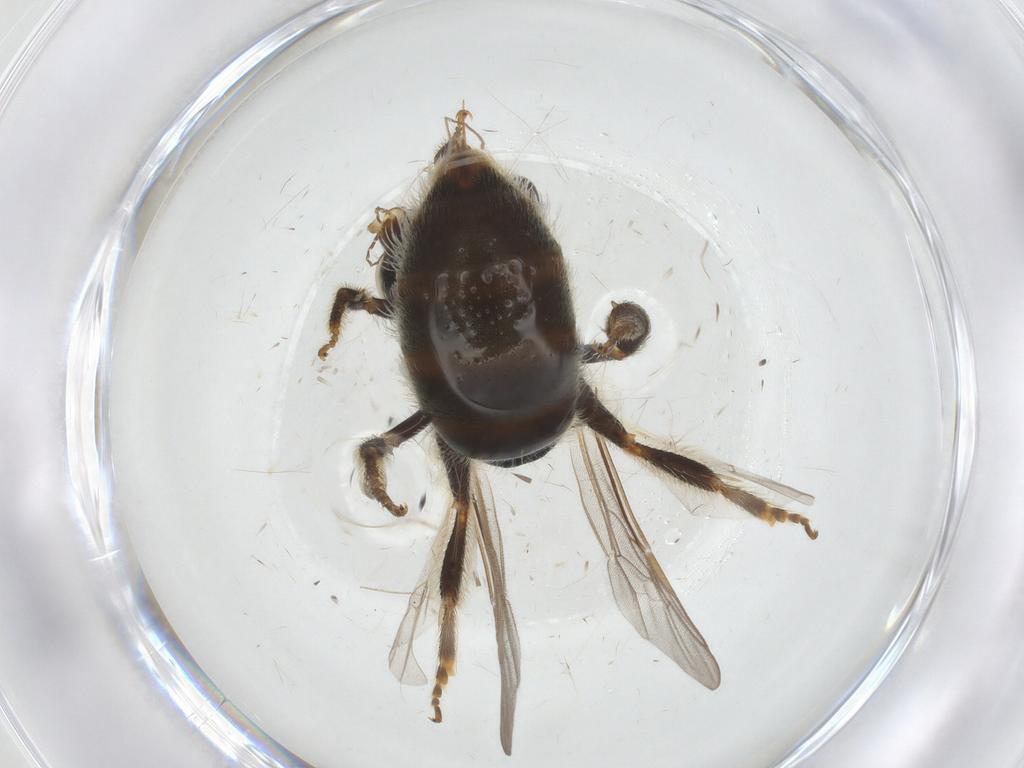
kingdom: Animalia
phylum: Arthropoda
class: Insecta
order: Hymenoptera
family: Halictidae
